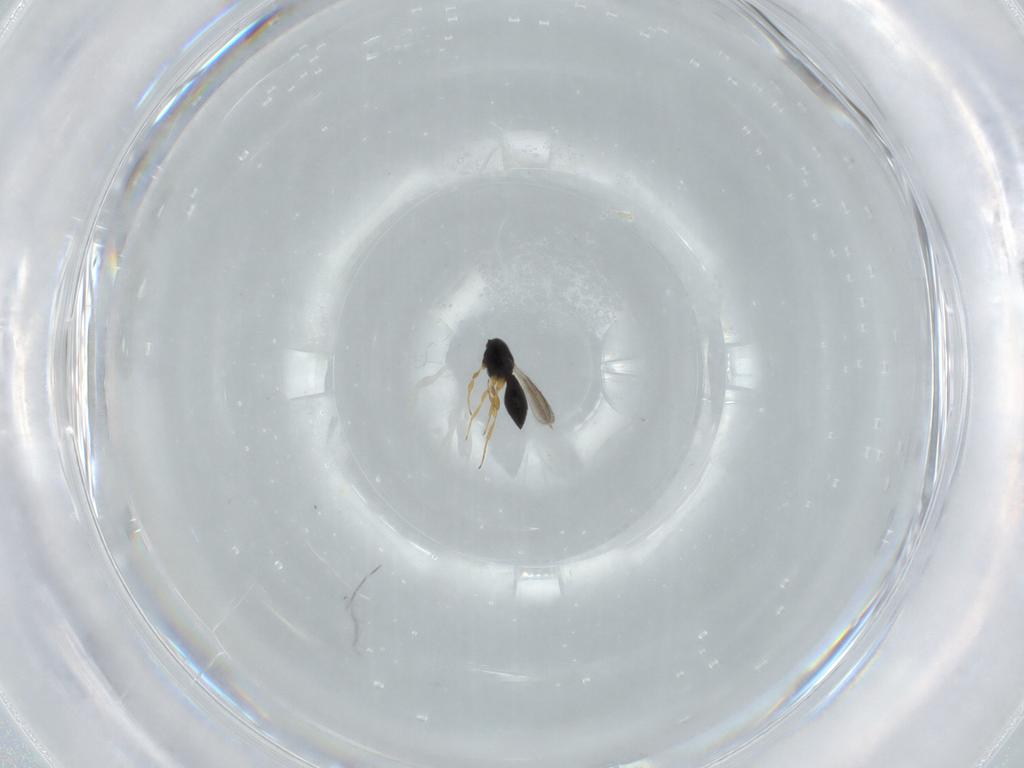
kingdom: Animalia
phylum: Arthropoda
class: Insecta
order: Hymenoptera
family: Scelionidae
